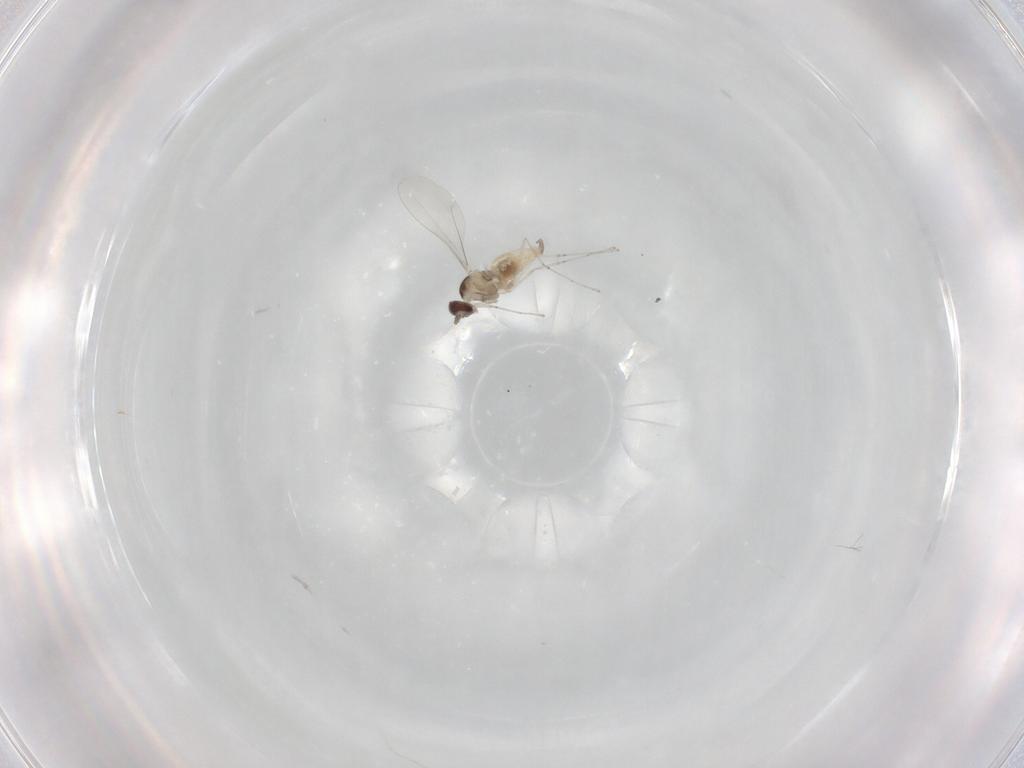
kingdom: Animalia
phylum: Arthropoda
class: Insecta
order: Diptera
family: Cecidomyiidae
